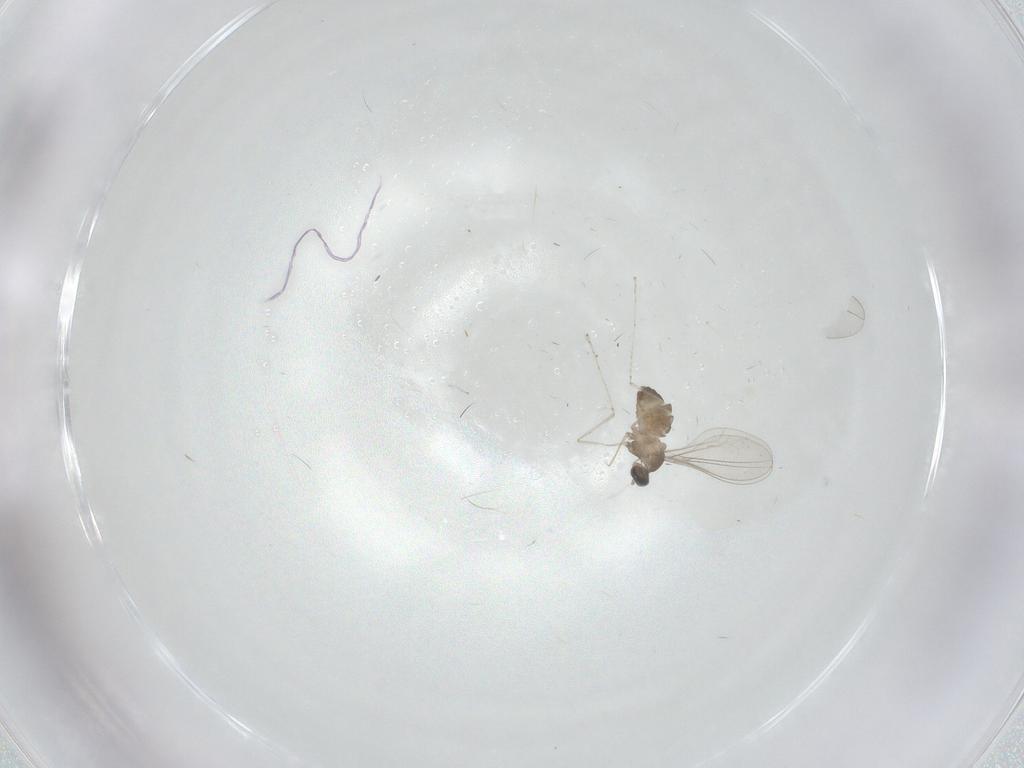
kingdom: Animalia
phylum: Arthropoda
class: Insecta
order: Diptera
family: Cecidomyiidae
